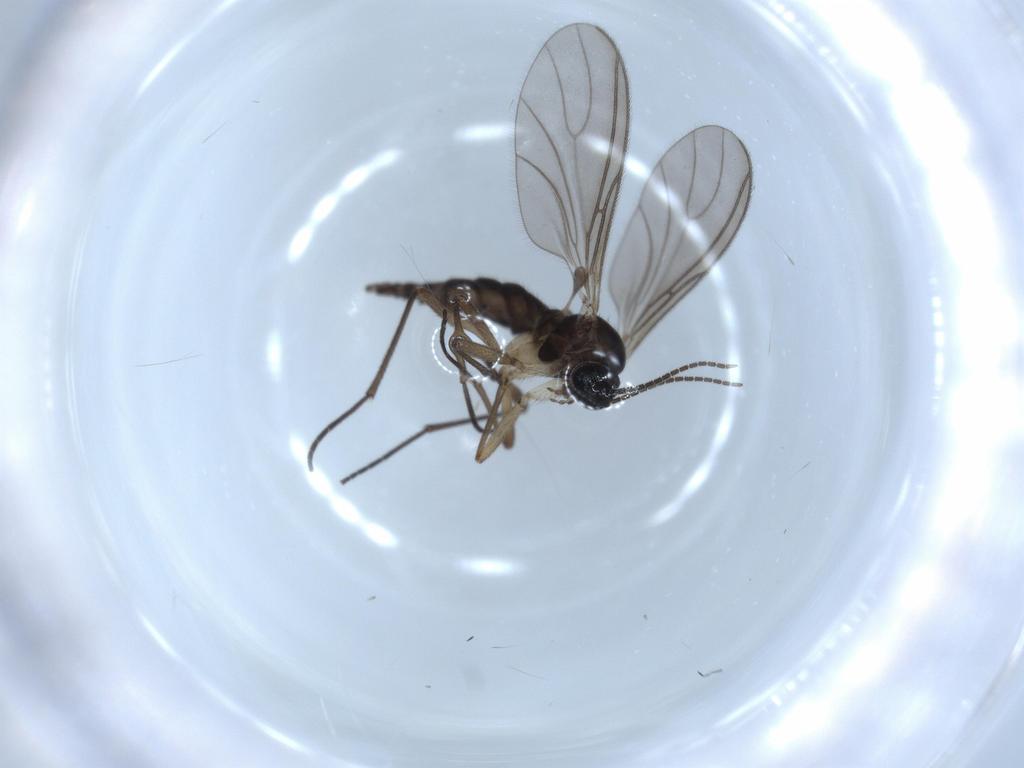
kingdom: Animalia
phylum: Arthropoda
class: Insecta
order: Diptera
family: Sciaridae
